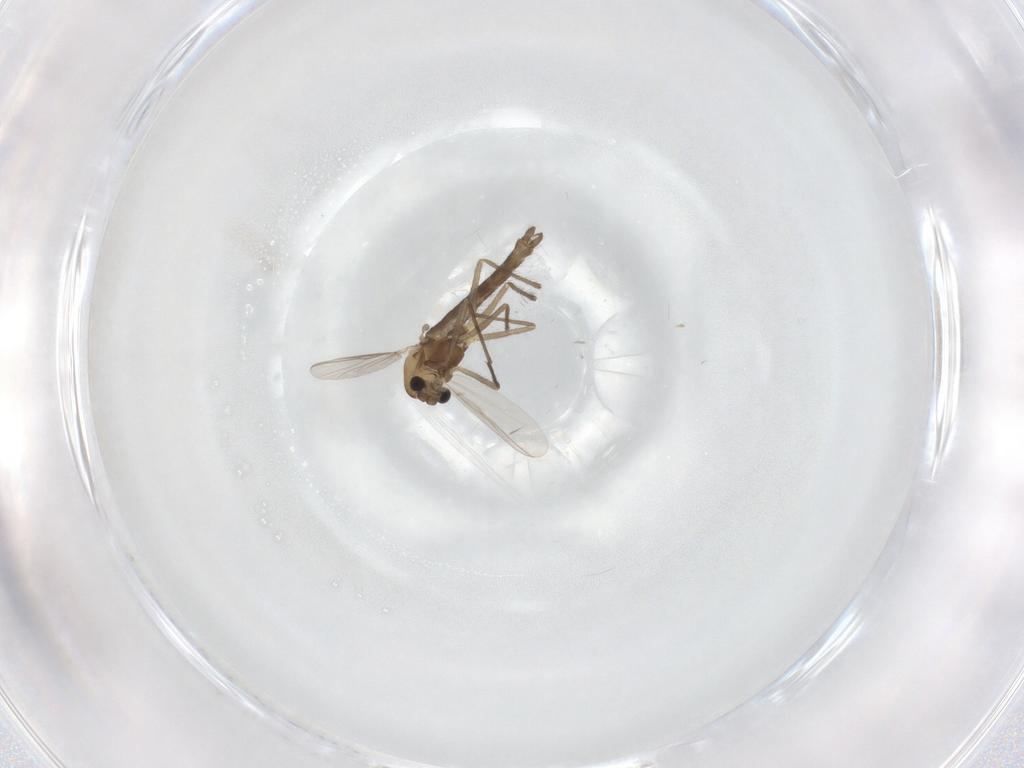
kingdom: Animalia
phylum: Arthropoda
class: Insecta
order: Diptera
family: Chironomidae
